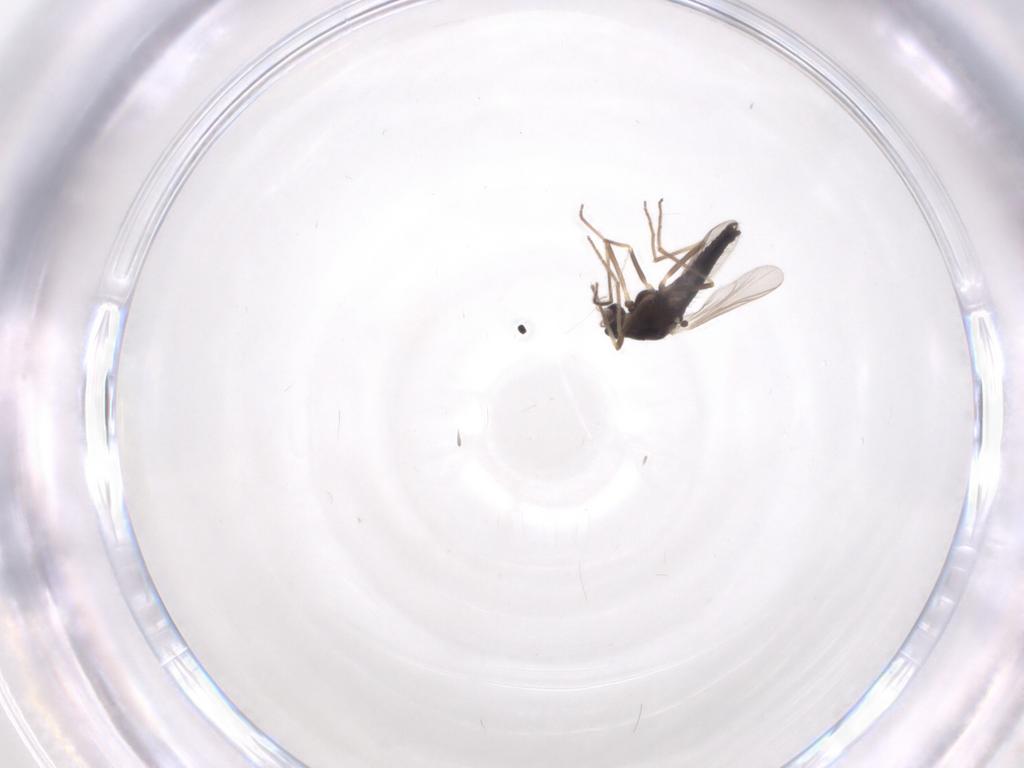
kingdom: Animalia
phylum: Arthropoda
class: Insecta
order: Diptera
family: Chironomidae
